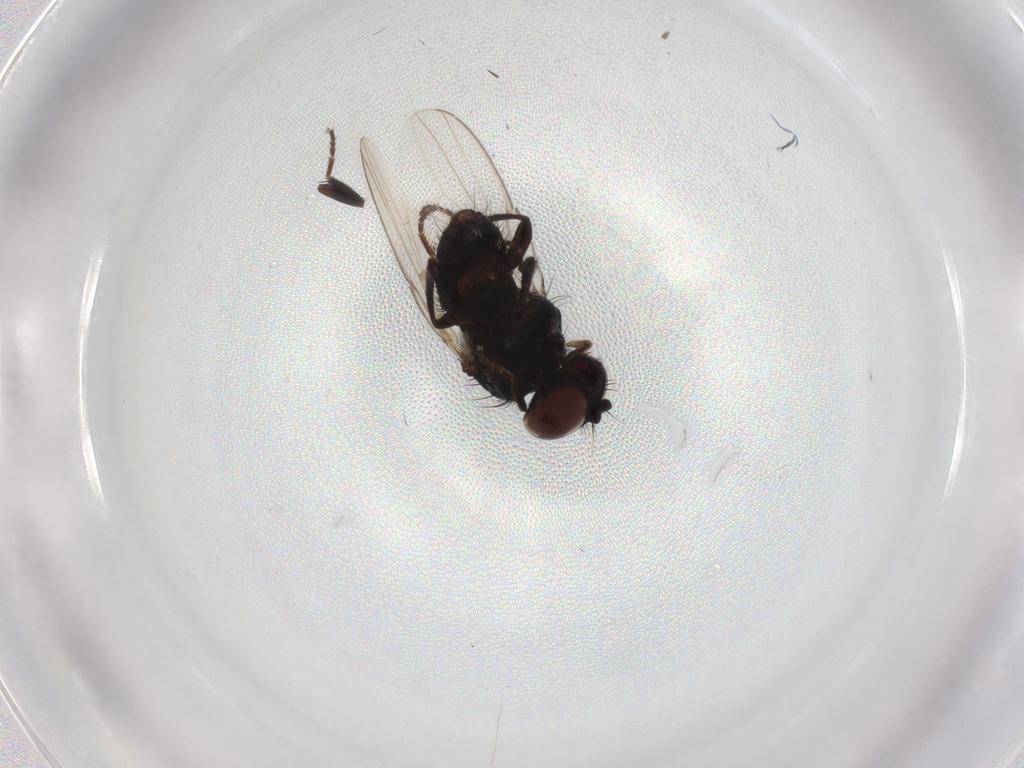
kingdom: Animalia
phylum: Arthropoda
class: Insecta
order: Diptera
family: Milichiidae
